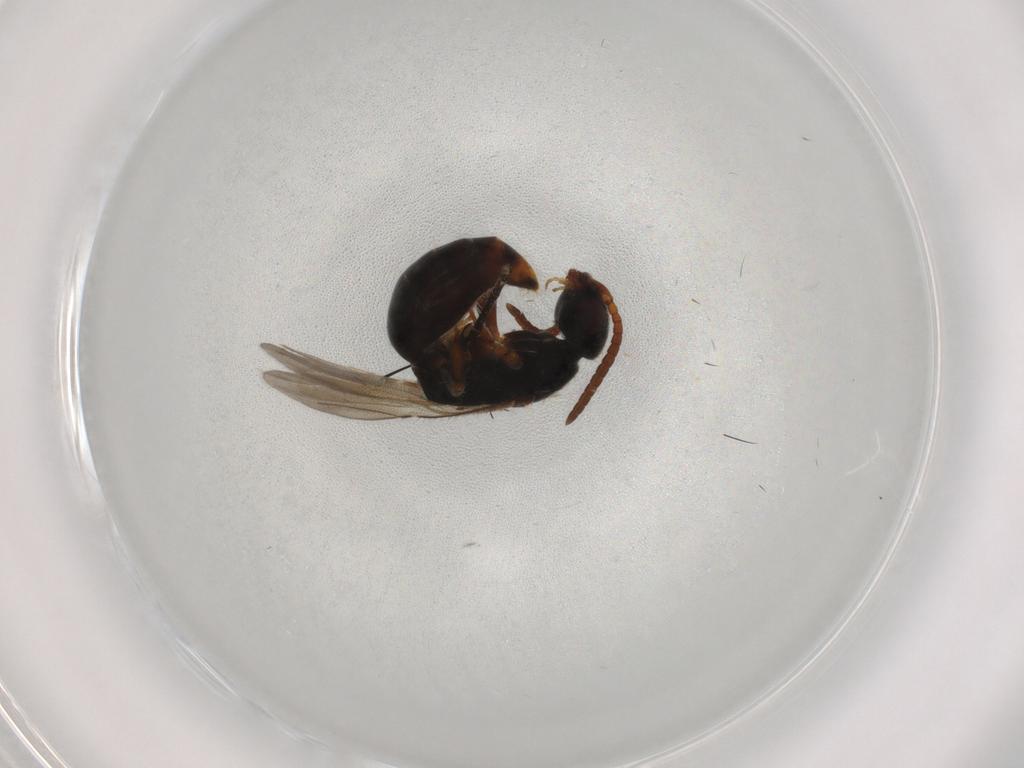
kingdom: Animalia
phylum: Arthropoda
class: Insecta
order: Hymenoptera
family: Bethylidae
